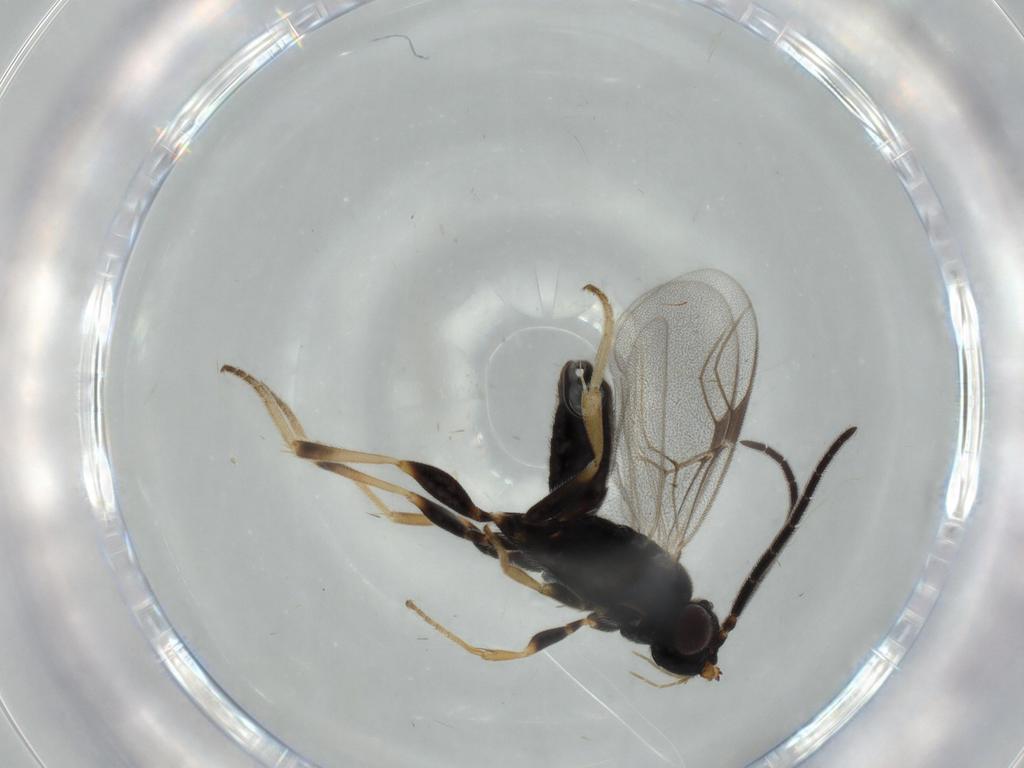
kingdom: Animalia
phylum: Arthropoda
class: Insecta
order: Hymenoptera
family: Dryinidae
